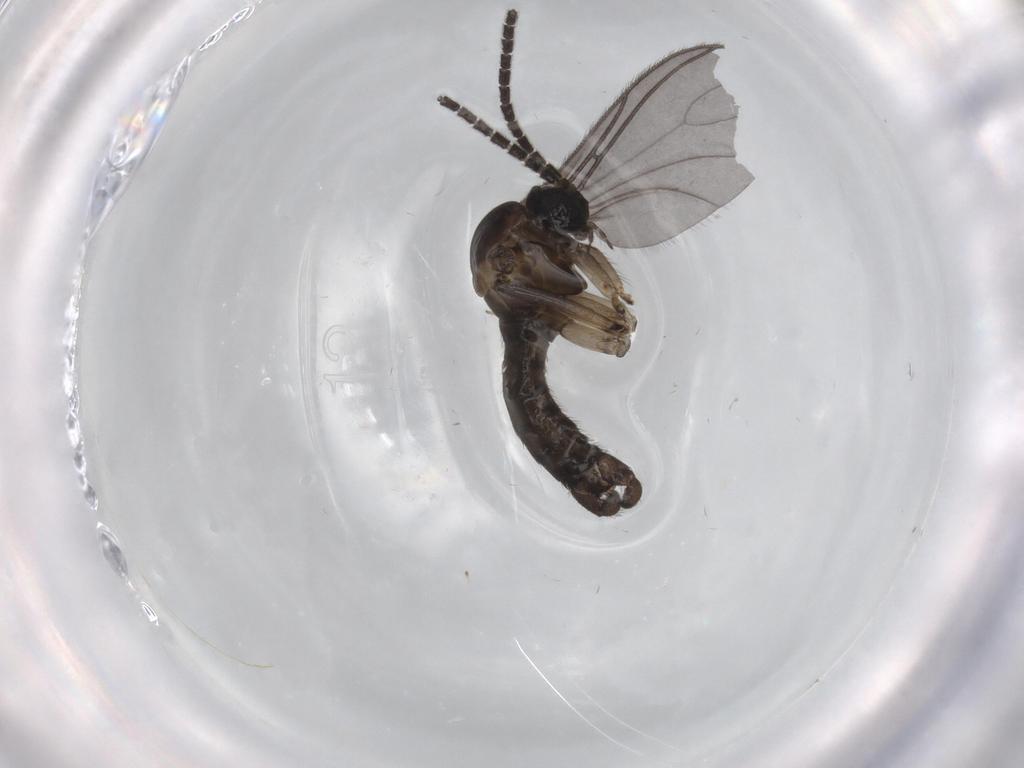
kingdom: Animalia
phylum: Arthropoda
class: Insecta
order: Diptera
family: Sciaridae
